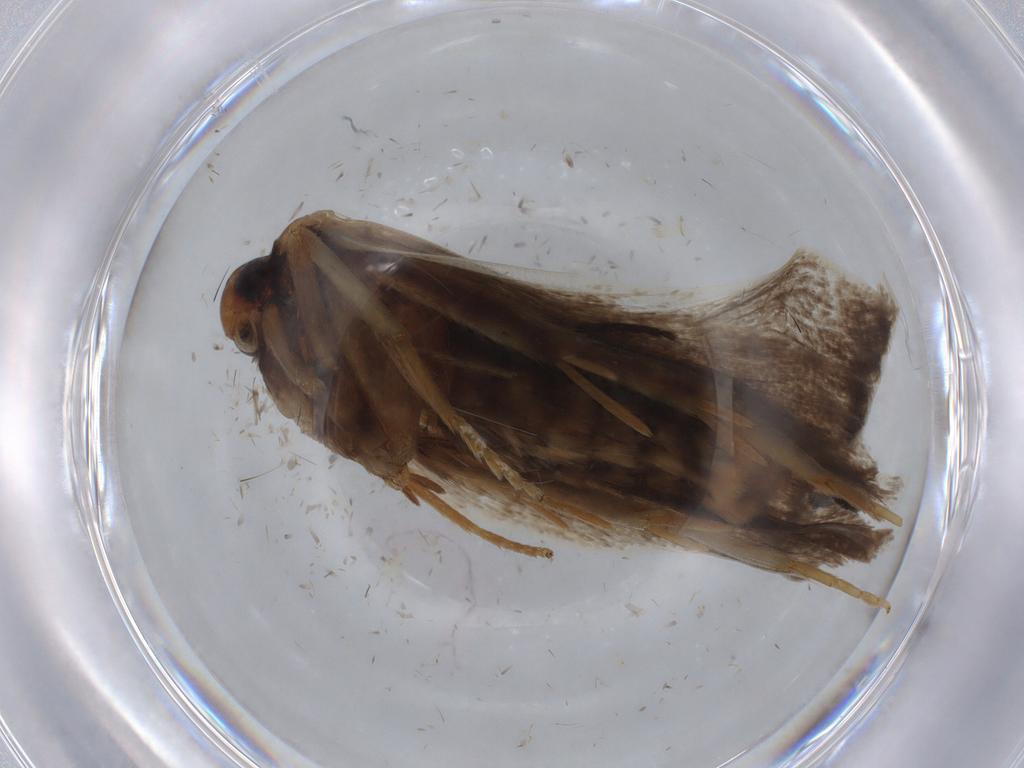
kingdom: Animalia
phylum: Arthropoda
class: Insecta
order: Lepidoptera
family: Lecithoceridae
